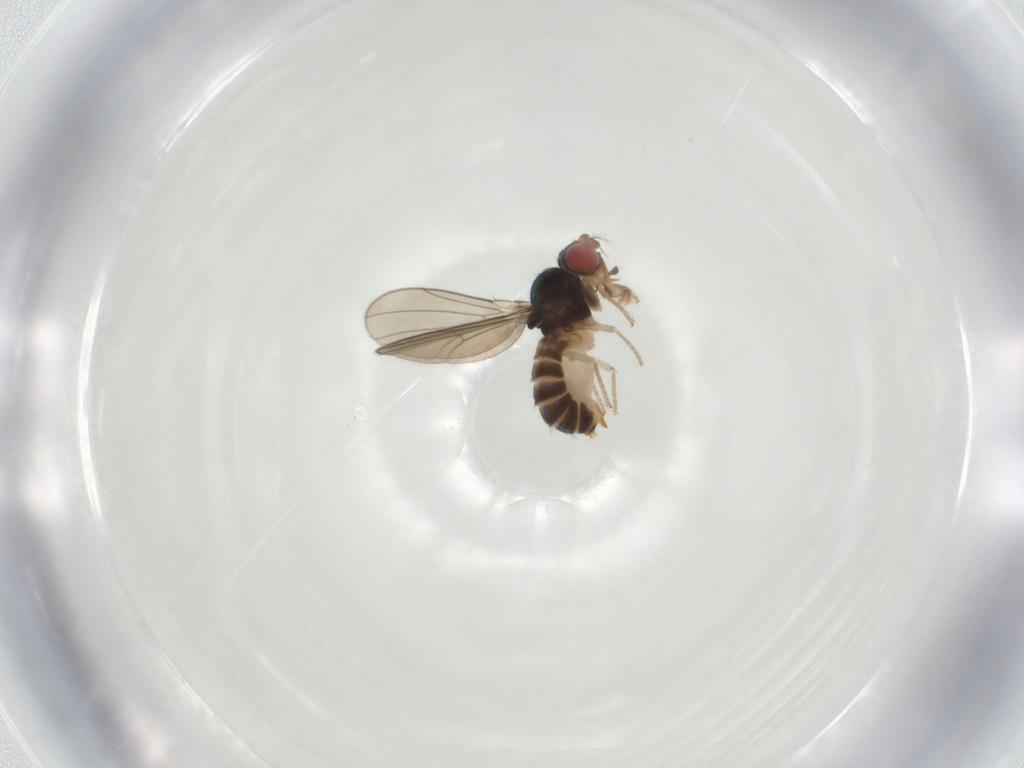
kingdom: Animalia
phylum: Arthropoda
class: Insecta
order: Diptera
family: Drosophilidae
